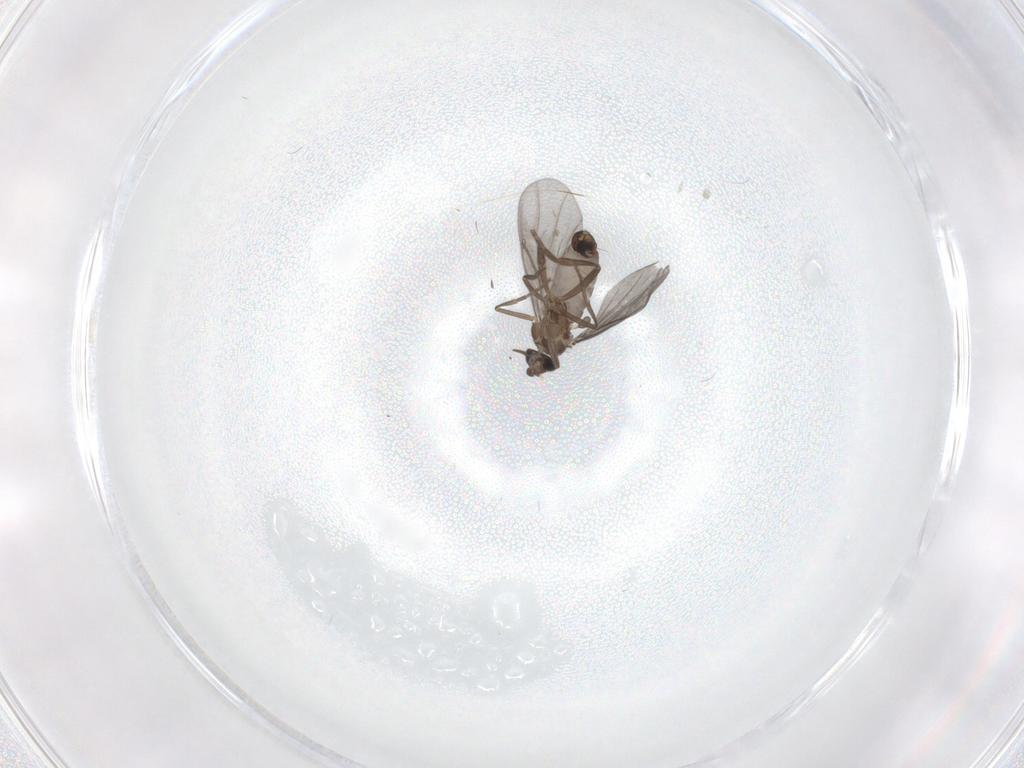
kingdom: Animalia
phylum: Arthropoda
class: Insecta
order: Diptera
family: Phoridae
